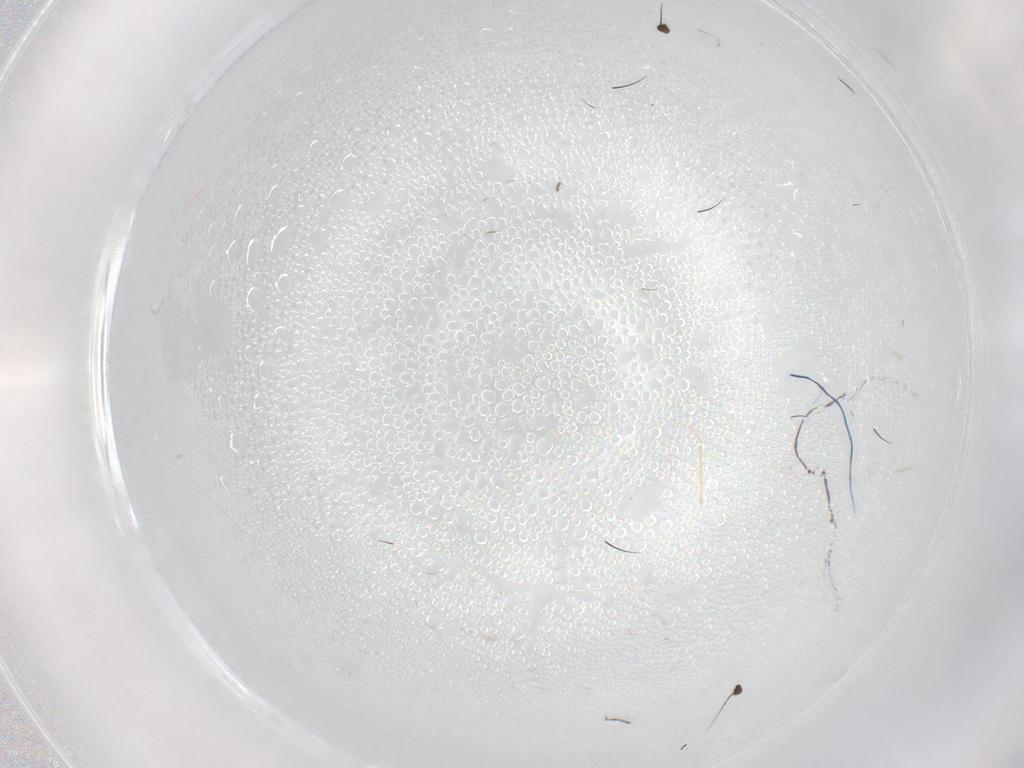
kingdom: Animalia
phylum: Arthropoda
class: Insecta
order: Diptera
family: Dolichopodidae
